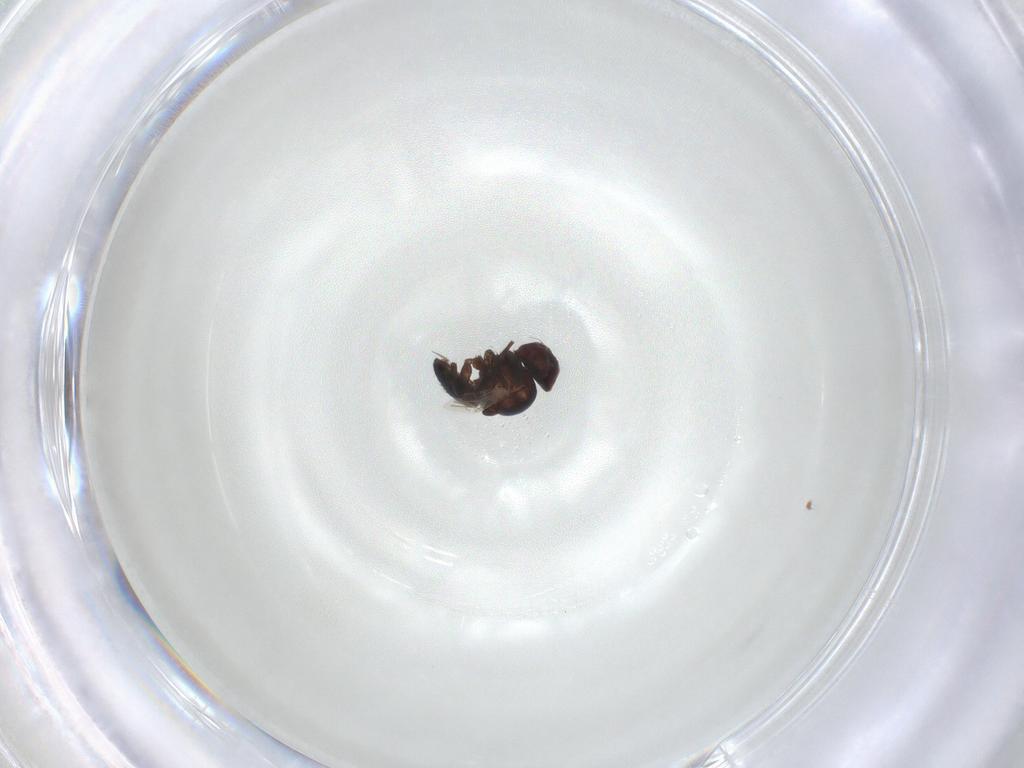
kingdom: Animalia
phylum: Arthropoda
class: Insecta
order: Diptera
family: Agromyzidae
